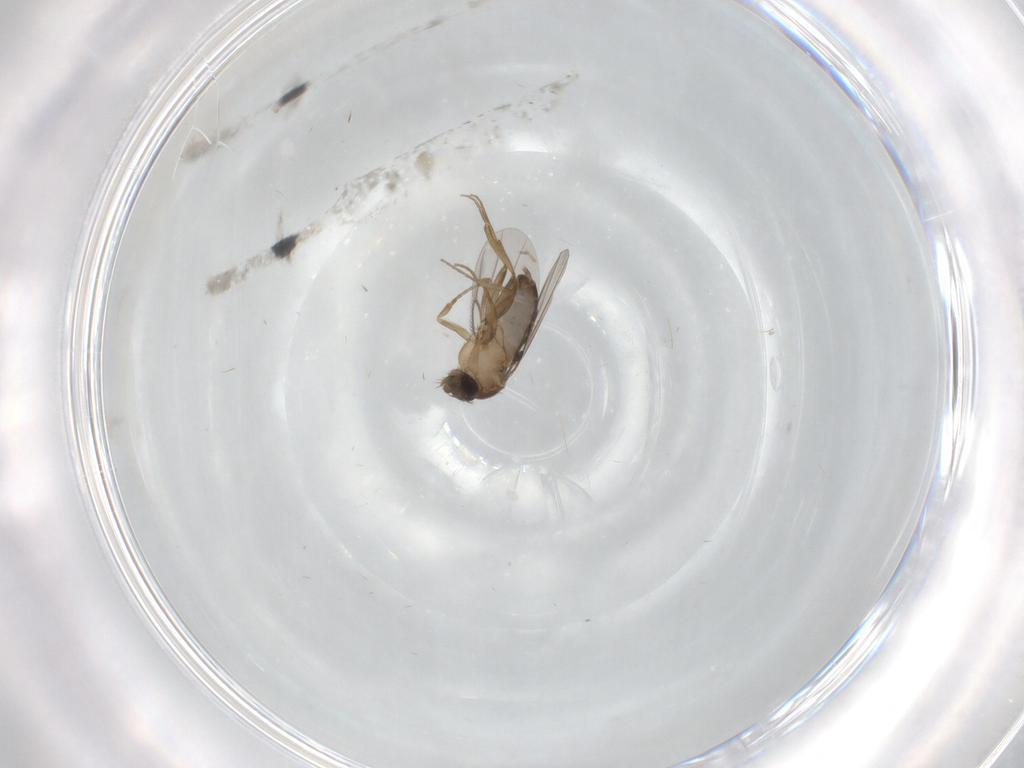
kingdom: Animalia
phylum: Arthropoda
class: Insecta
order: Diptera
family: Phoridae
